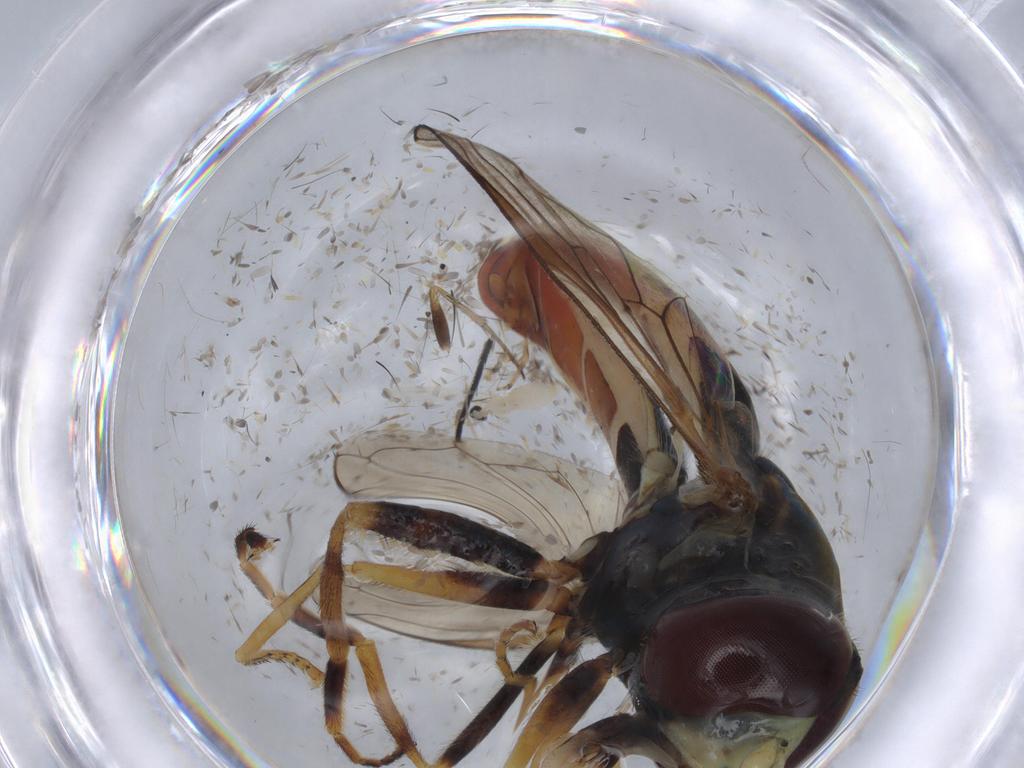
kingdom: Animalia
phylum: Arthropoda
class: Insecta
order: Diptera
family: Syrphidae
